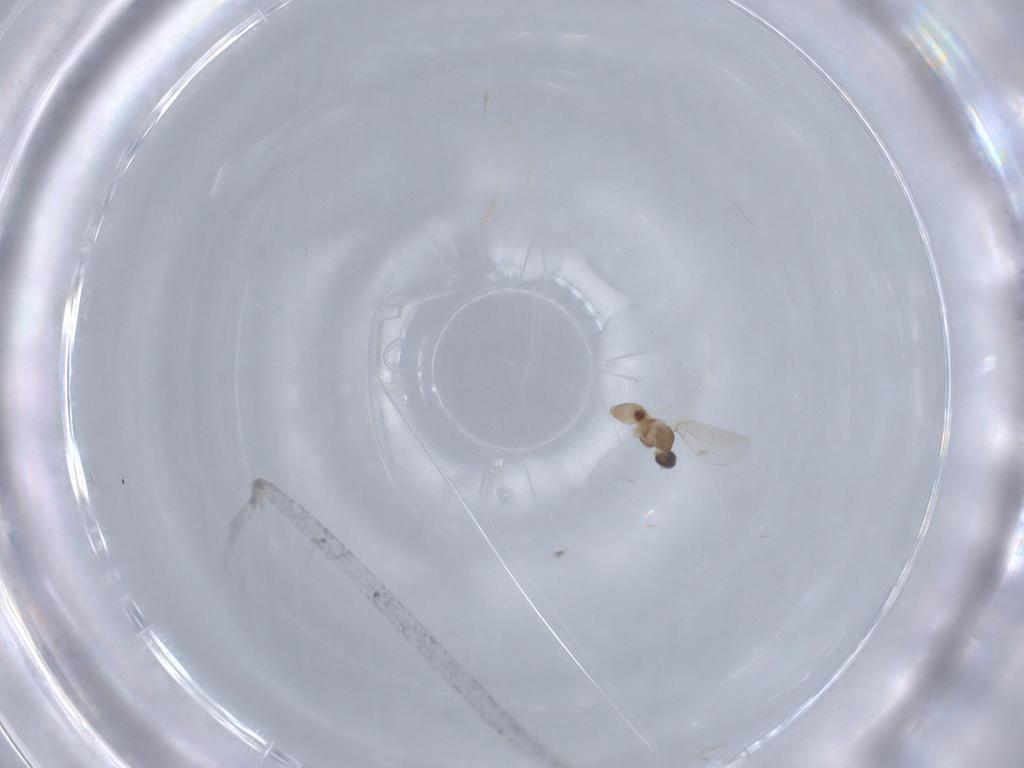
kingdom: Animalia
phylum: Arthropoda
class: Insecta
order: Diptera
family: Cecidomyiidae
